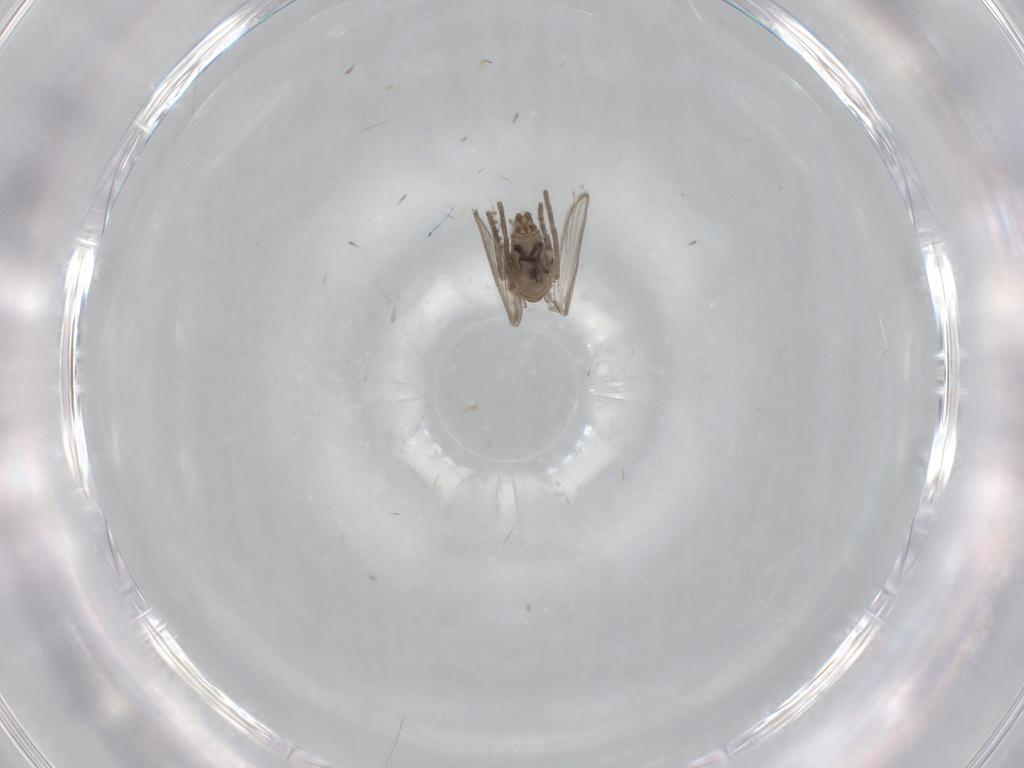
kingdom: Animalia
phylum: Arthropoda
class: Insecta
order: Diptera
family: Psychodidae
